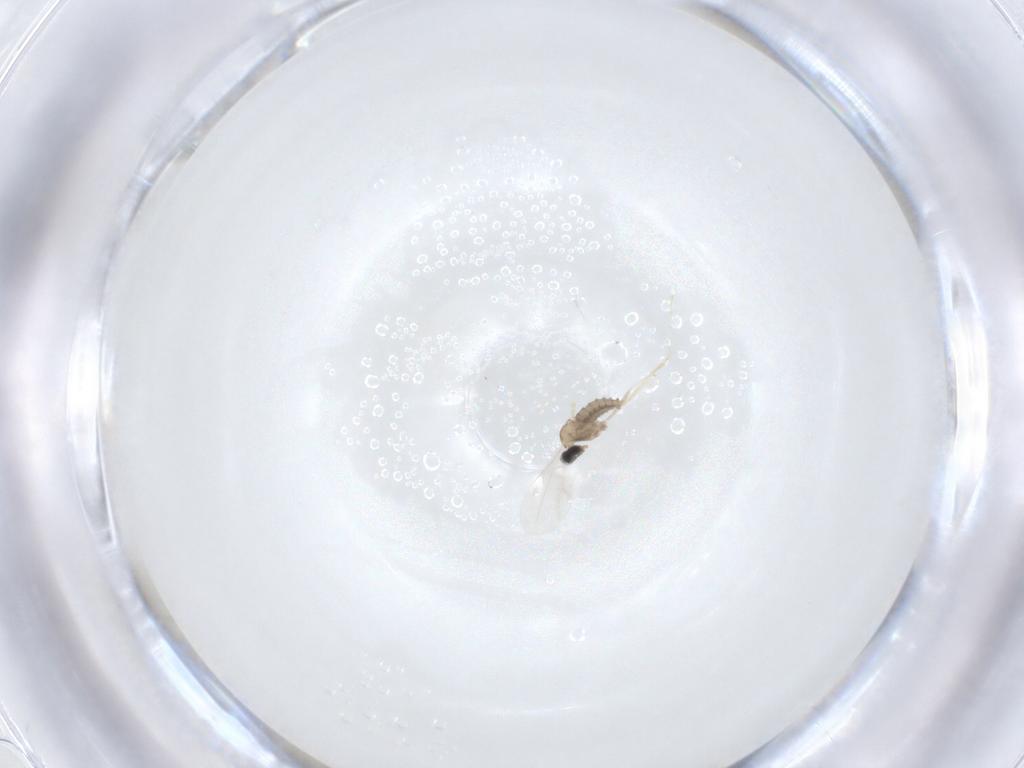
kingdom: Animalia
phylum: Arthropoda
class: Insecta
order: Diptera
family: Cecidomyiidae
